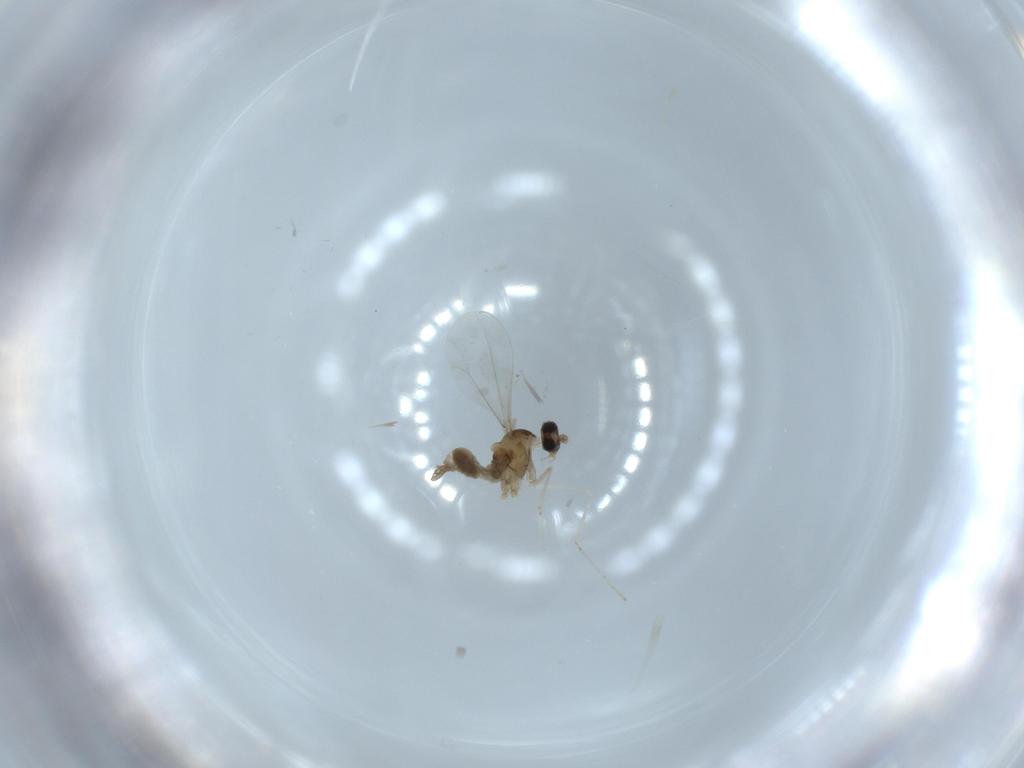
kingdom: Animalia
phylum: Arthropoda
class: Insecta
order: Diptera
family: Cecidomyiidae
